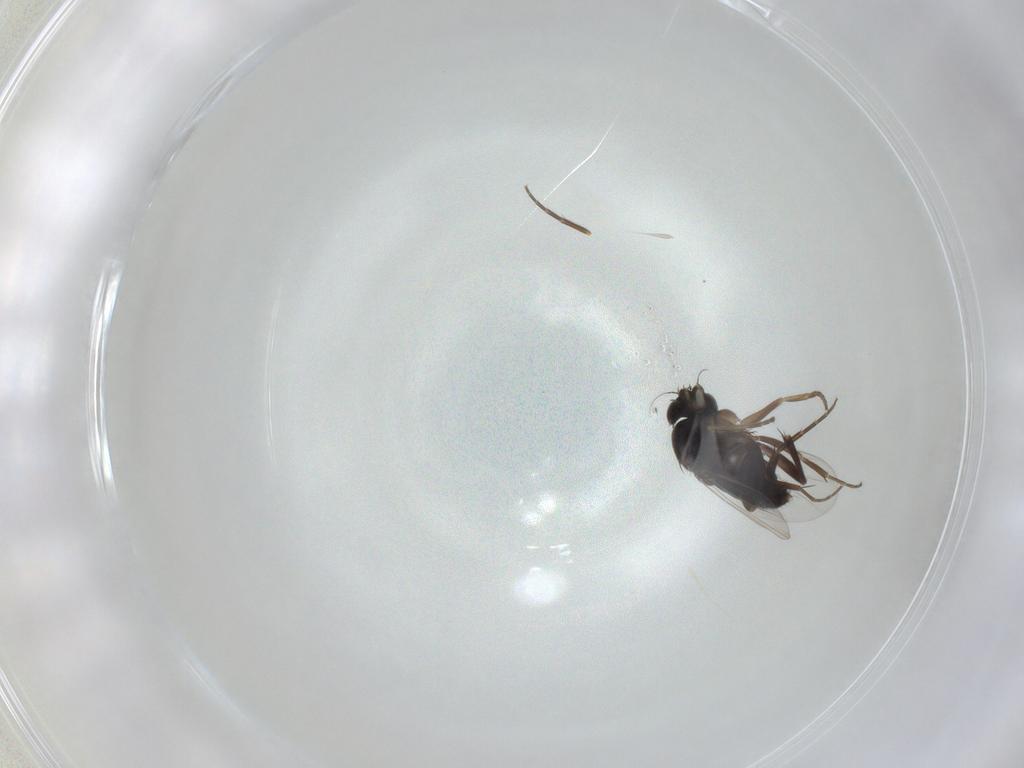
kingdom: Animalia
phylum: Arthropoda
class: Insecta
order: Diptera
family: Phoridae
